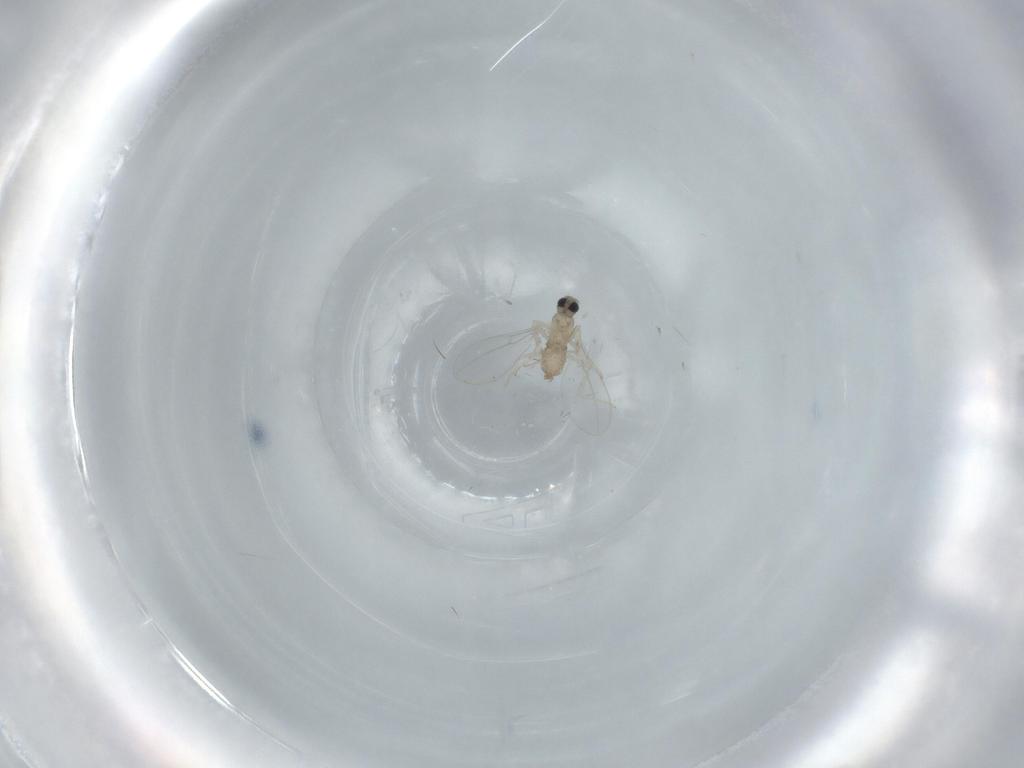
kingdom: Animalia
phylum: Arthropoda
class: Insecta
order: Diptera
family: Cecidomyiidae
